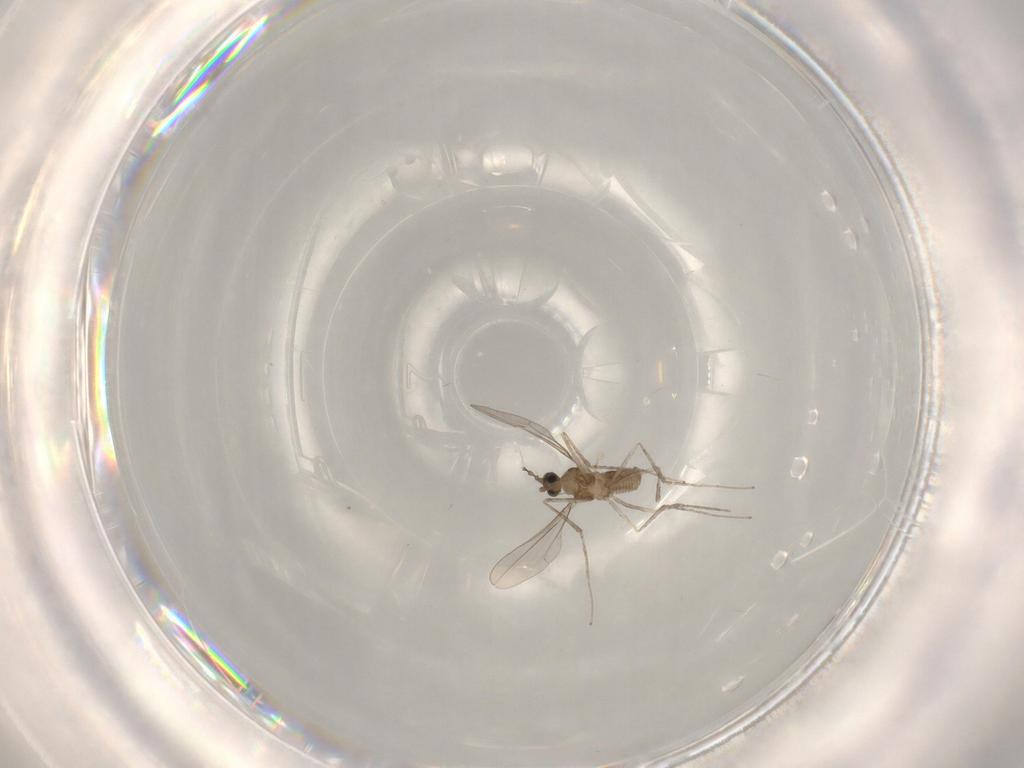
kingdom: Animalia
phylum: Arthropoda
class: Insecta
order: Diptera
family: Cecidomyiidae
